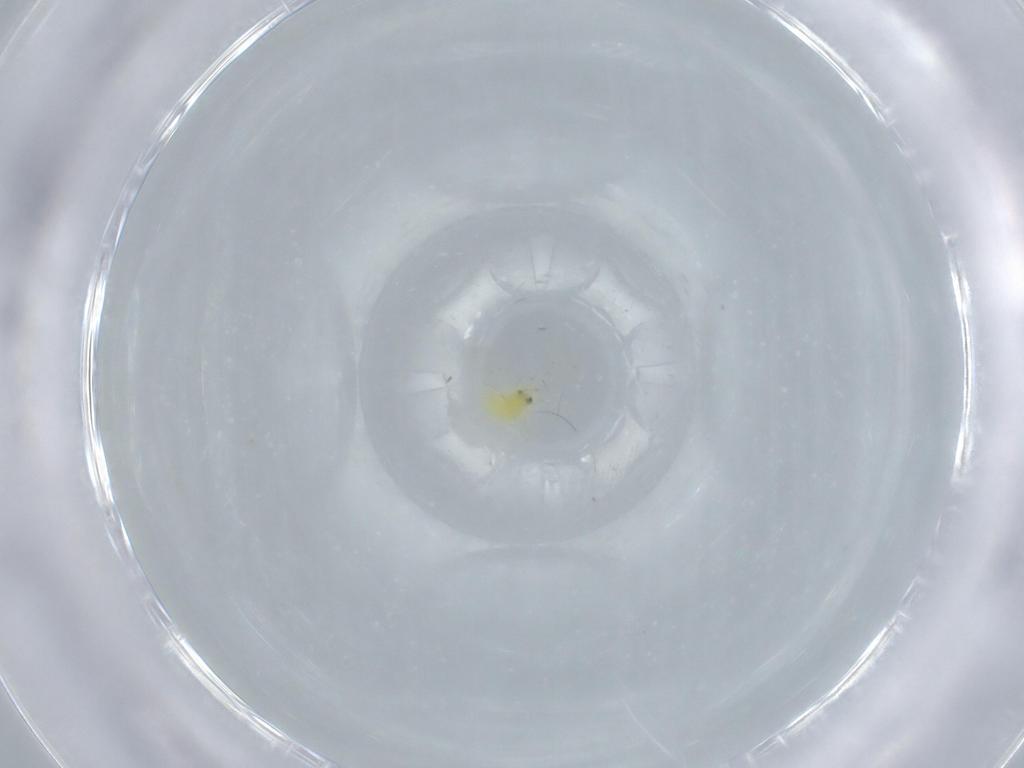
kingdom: Animalia
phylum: Arthropoda
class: Insecta
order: Hemiptera
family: Aleyrodidae
